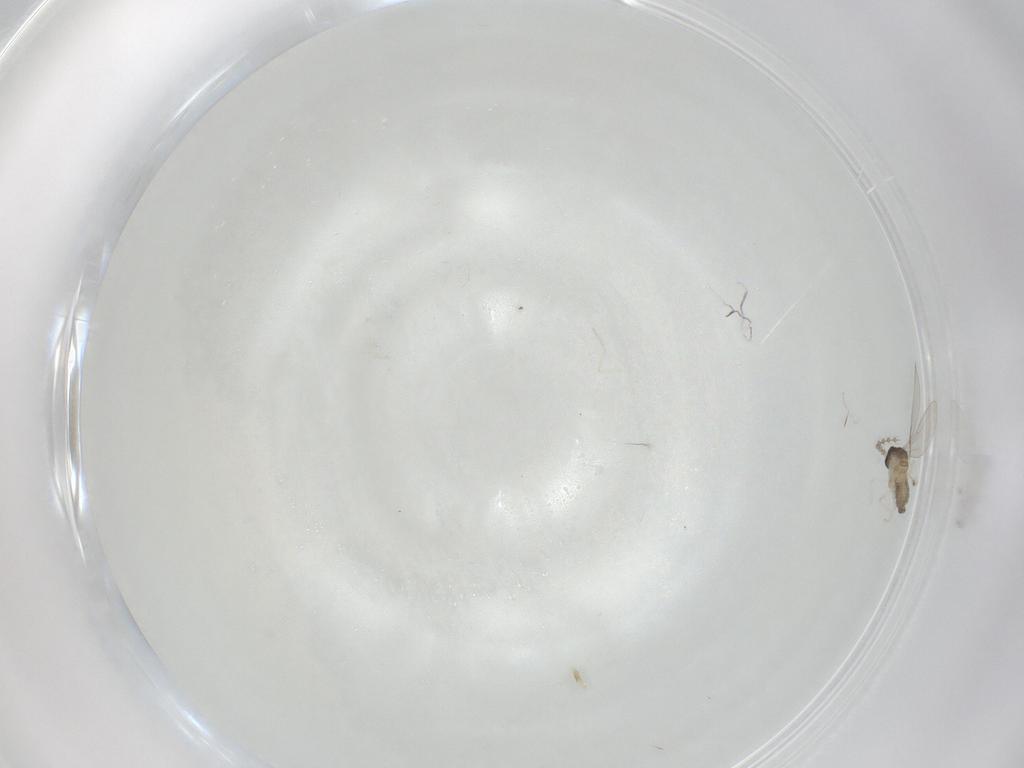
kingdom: Animalia
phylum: Arthropoda
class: Insecta
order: Diptera
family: Cecidomyiidae
